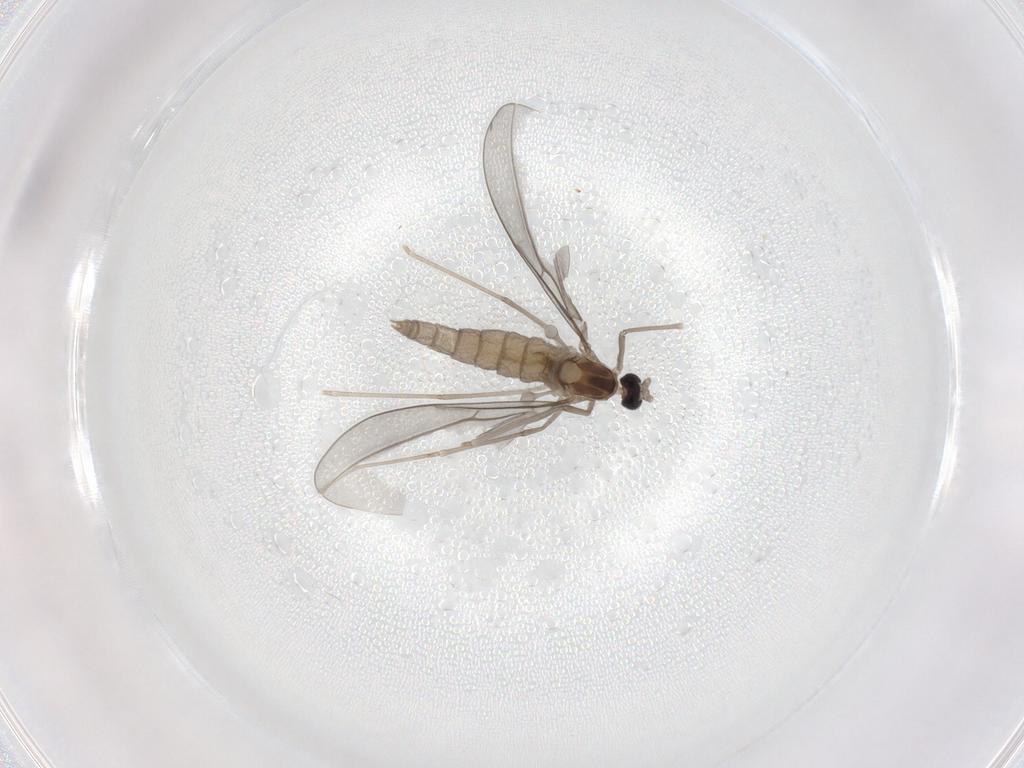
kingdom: Animalia
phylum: Arthropoda
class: Insecta
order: Diptera
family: Cecidomyiidae
